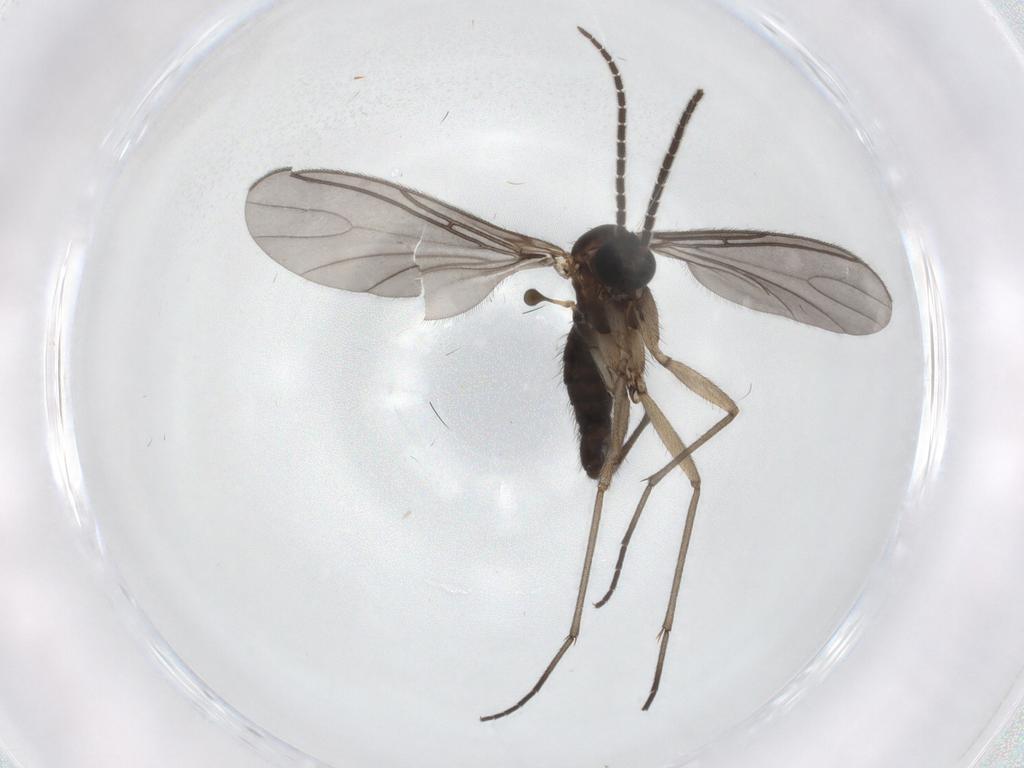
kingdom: Animalia
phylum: Arthropoda
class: Insecta
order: Diptera
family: Sciaridae
